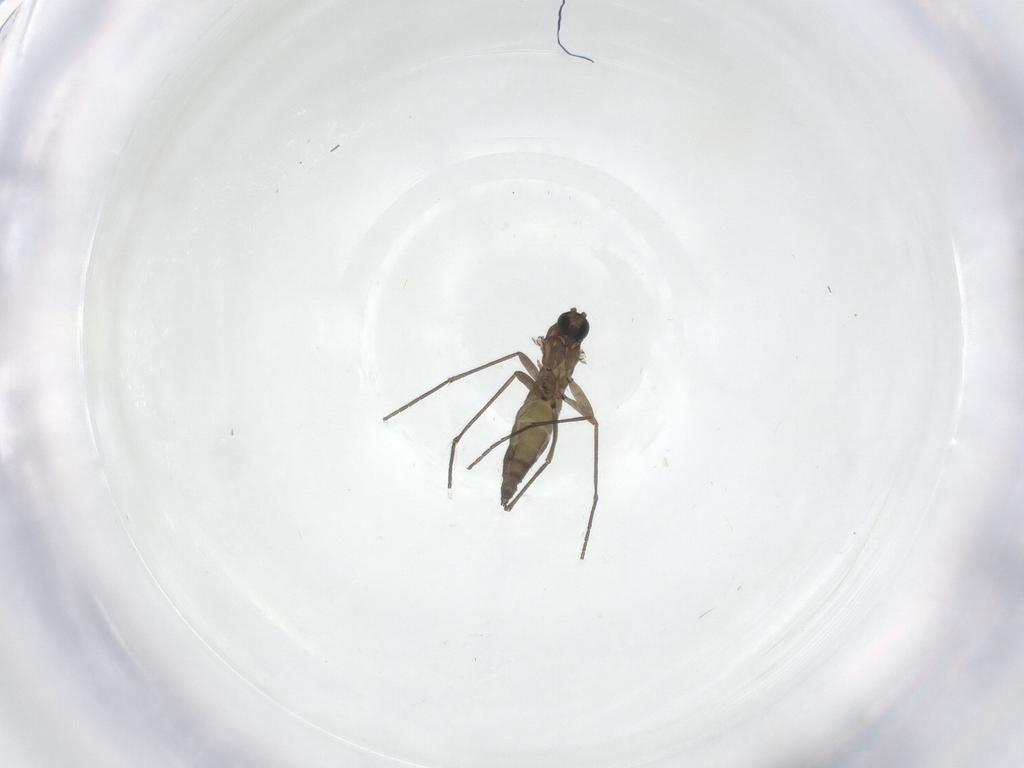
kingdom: Animalia
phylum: Arthropoda
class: Insecta
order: Diptera
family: Sciaridae
